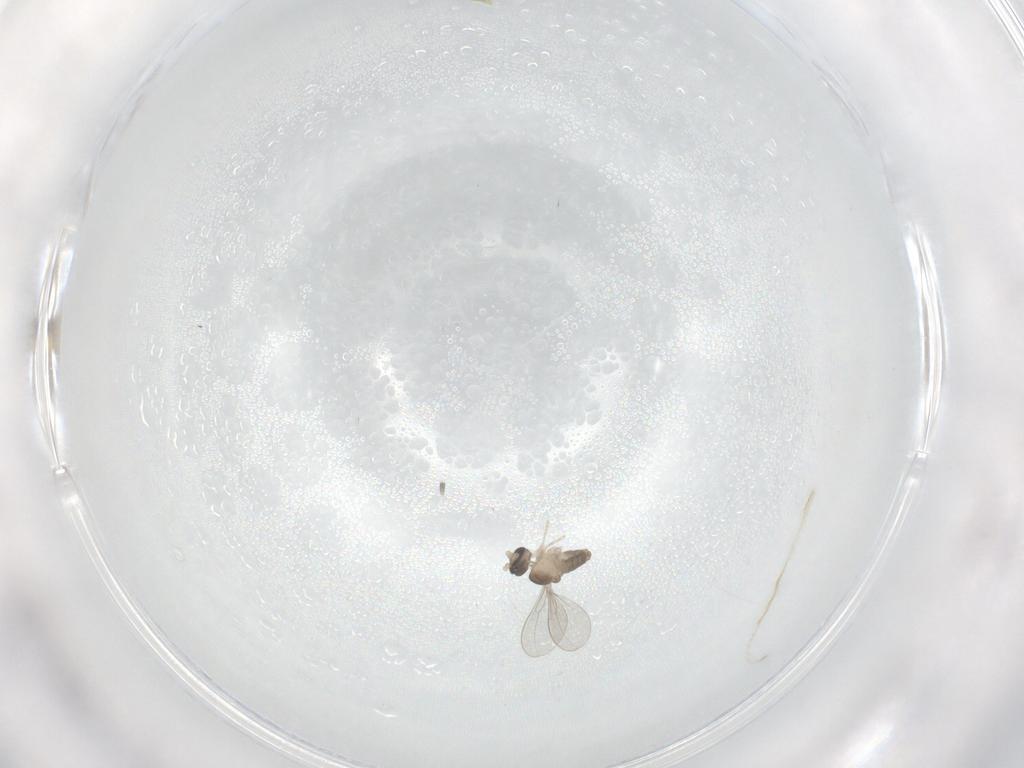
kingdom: Animalia
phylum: Arthropoda
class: Insecta
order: Diptera
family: Cecidomyiidae
